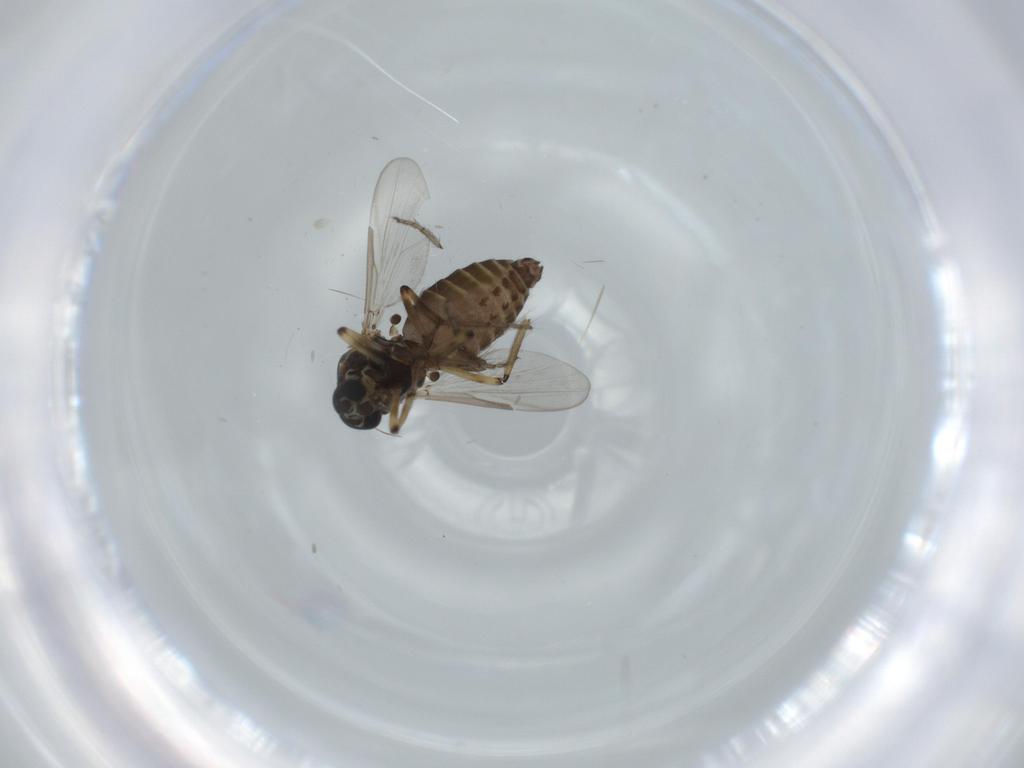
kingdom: Animalia
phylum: Arthropoda
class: Insecta
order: Diptera
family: Ceratopogonidae
